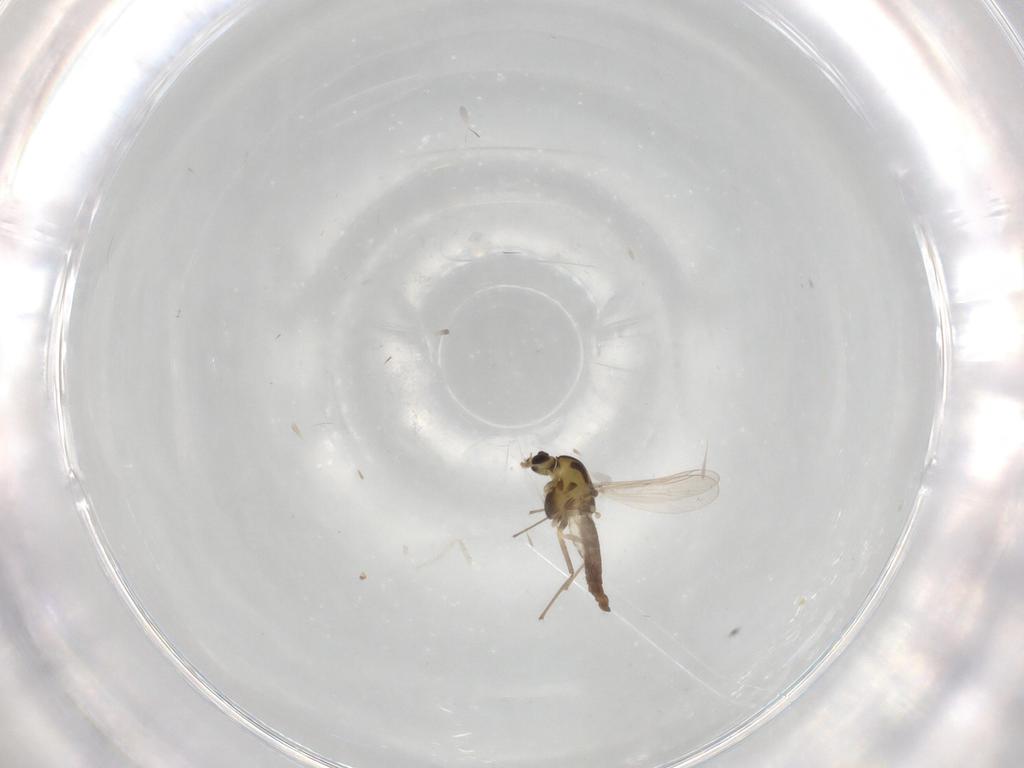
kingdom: Animalia
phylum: Arthropoda
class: Insecta
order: Diptera
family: Cecidomyiidae
